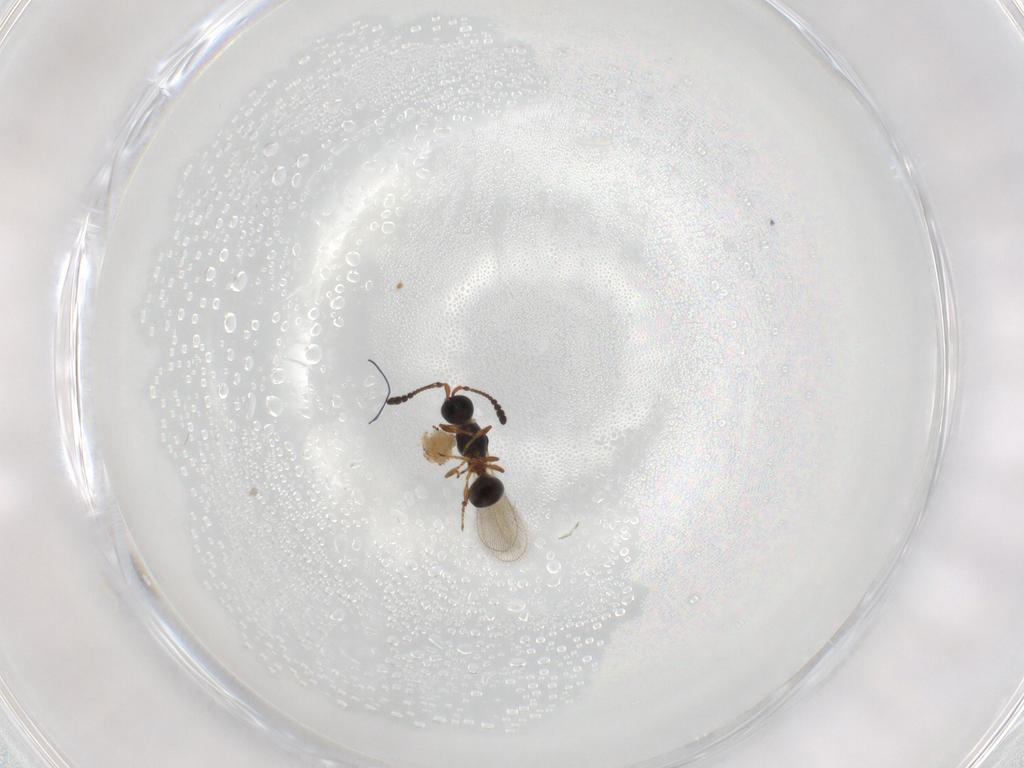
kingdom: Animalia
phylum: Arthropoda
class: Insecta
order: Hymenoptera
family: Diapriidae
